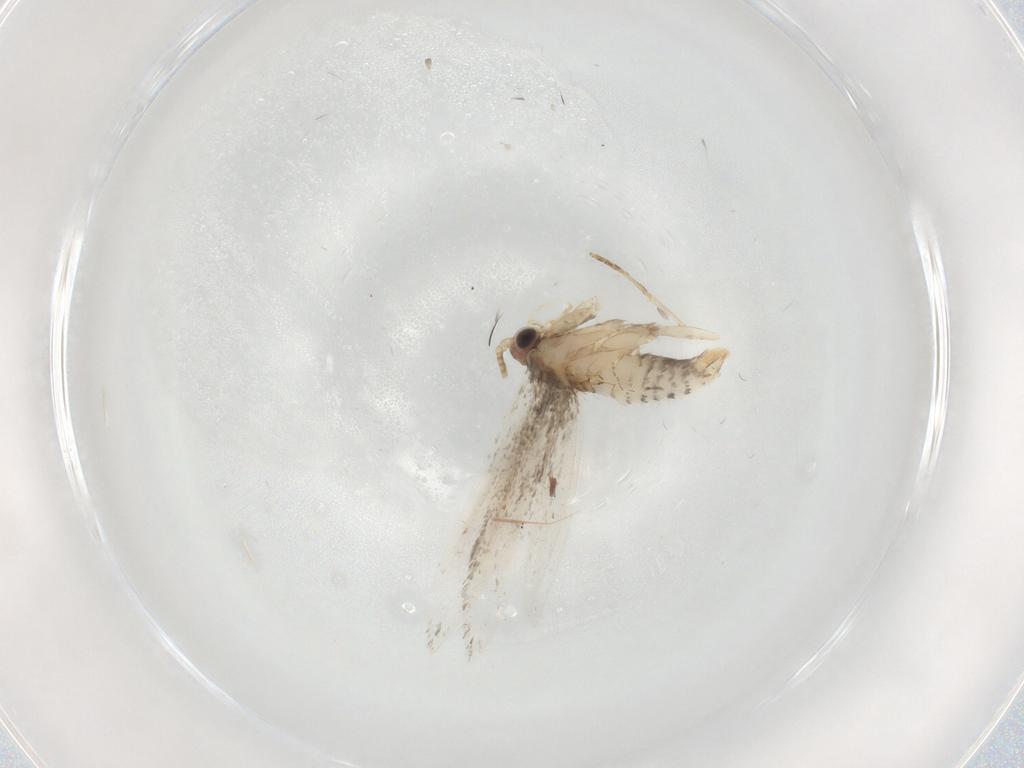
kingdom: Animalia
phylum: Arthropoda
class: Insecta
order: Lepidoptera
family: Tineidae
